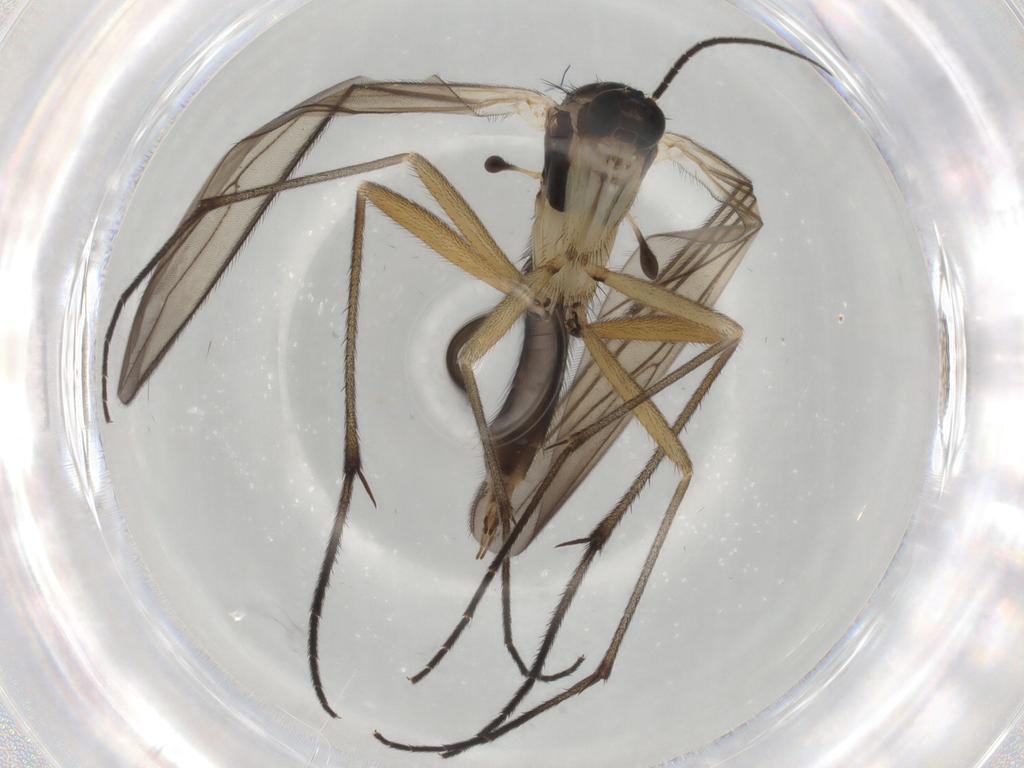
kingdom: Animalia
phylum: Arthropoda
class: Insecta
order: Diptera
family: Sciaridae
